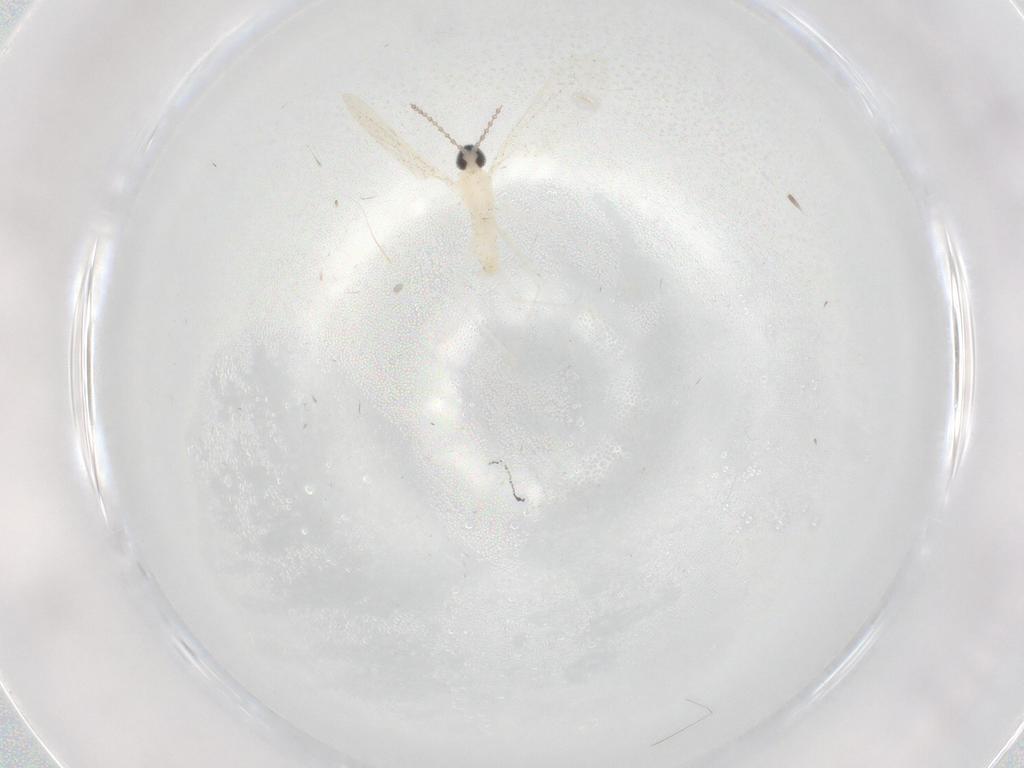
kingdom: Animalia
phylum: Arthropoda
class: Insecta
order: Diptera
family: Cecidomyiidae
